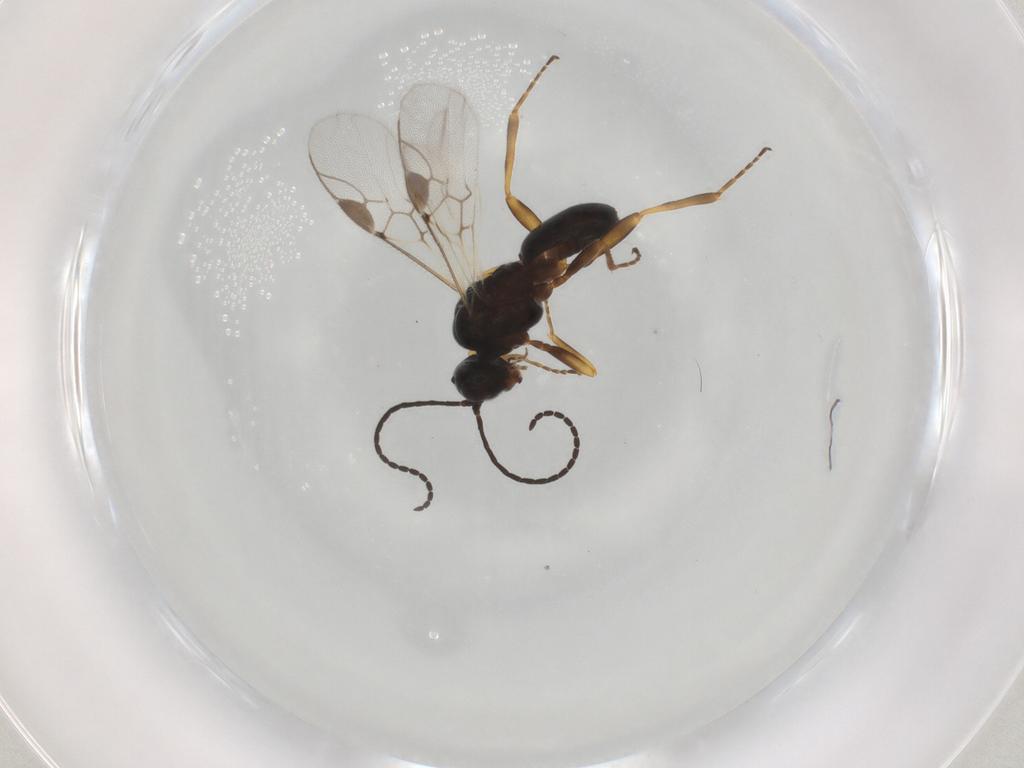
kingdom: Animalia
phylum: Arthropoda
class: Insecta
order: Hymenoptera
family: Braconidae
